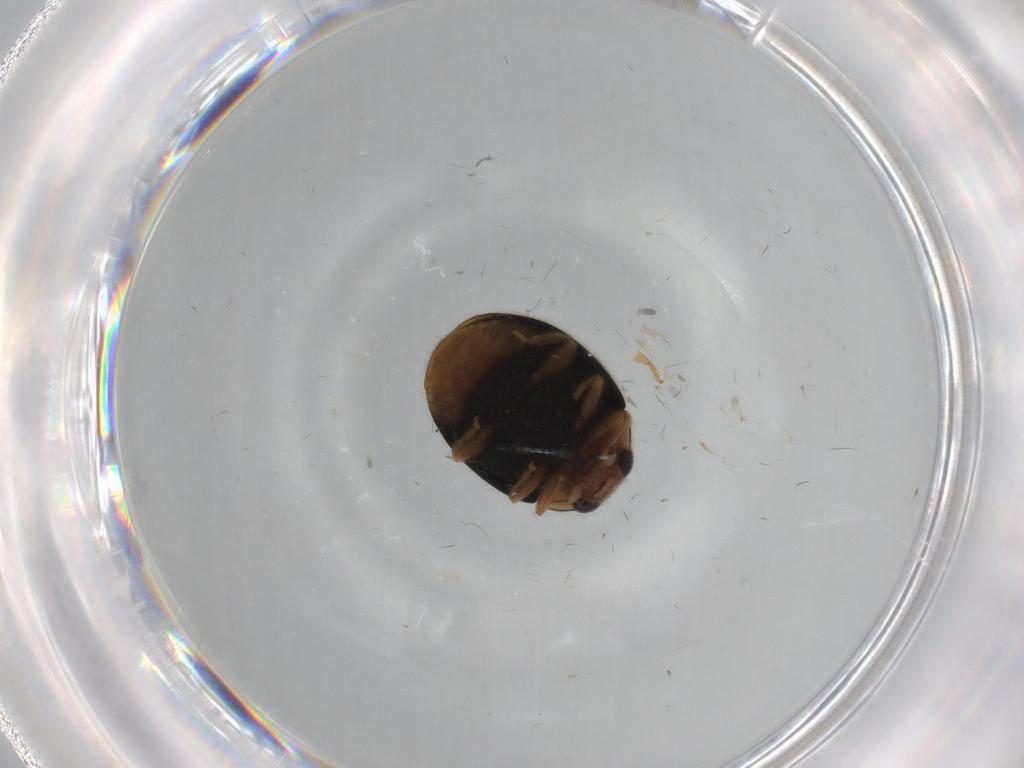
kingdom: Animalia
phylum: Arthropoda
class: Insecta
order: Coleoptera
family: Coccinellidae
